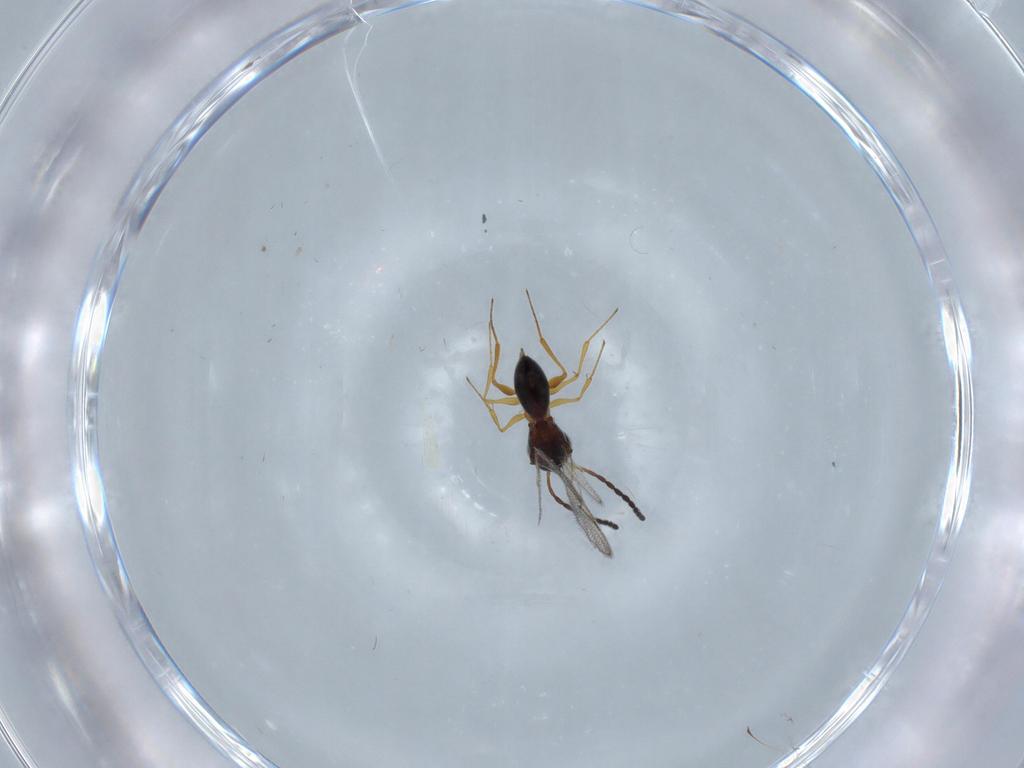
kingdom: Animalia
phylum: Arthropoda
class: Insecta
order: Hymenoptera
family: Figitidae
